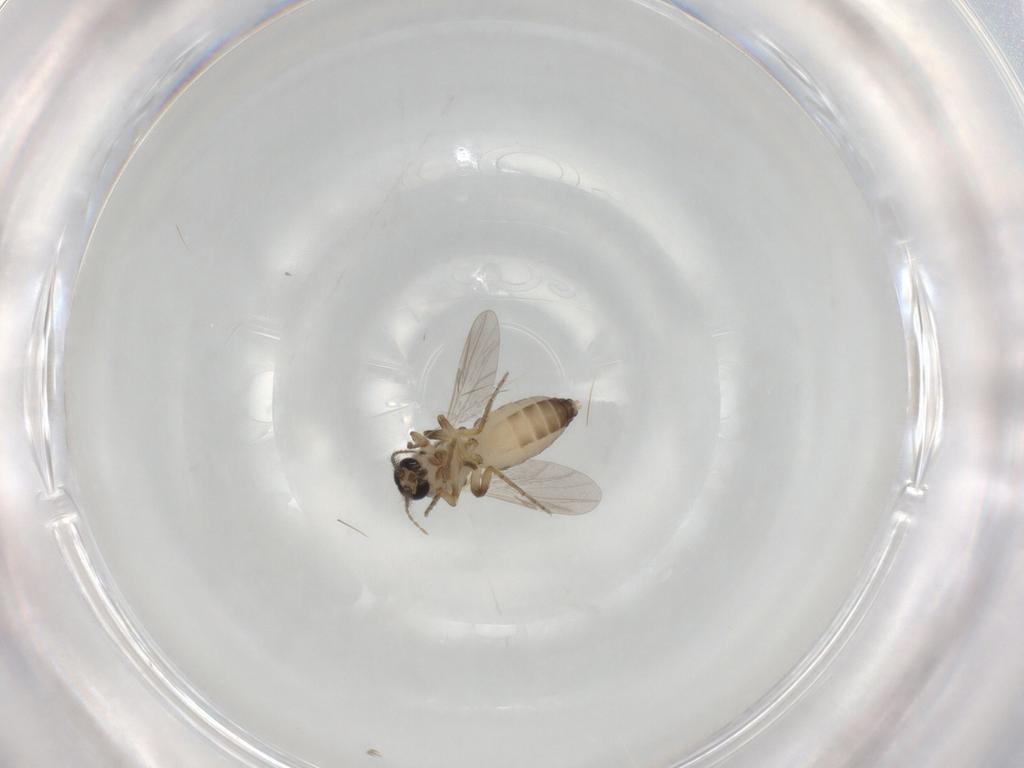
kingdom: Animalia
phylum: Arthropoda
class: Insecta
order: Diptera
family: Ceratopogonidae
